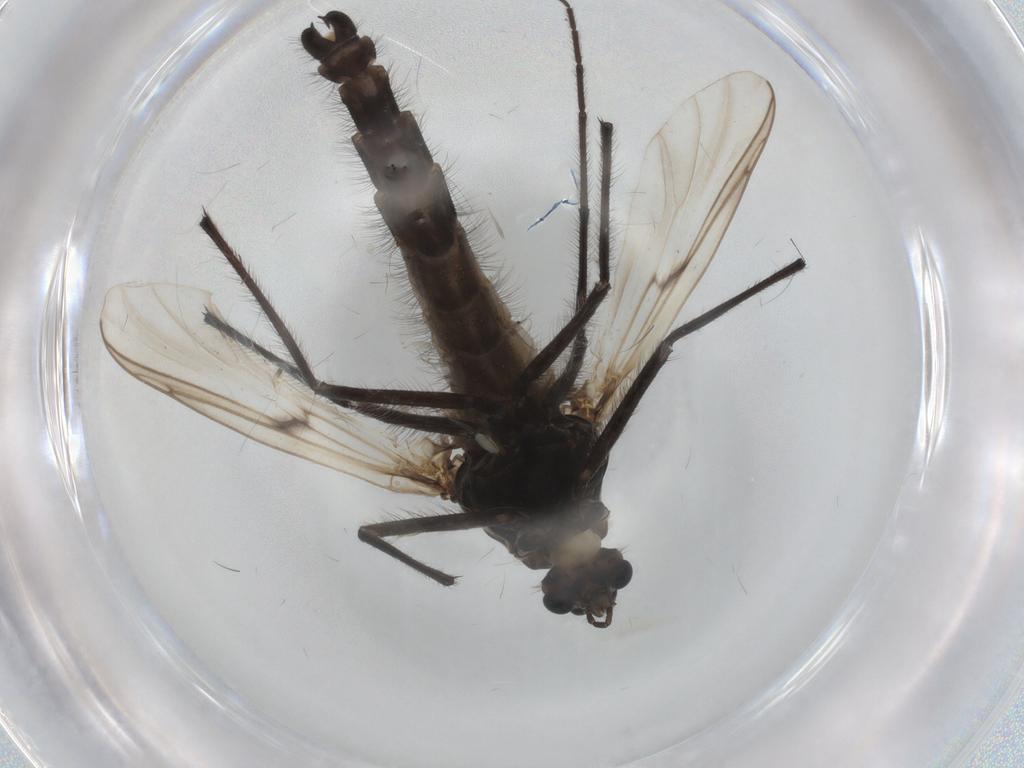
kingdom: Animalia
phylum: Arthropoda
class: Insecta
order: Diptera
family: Chironomidae
